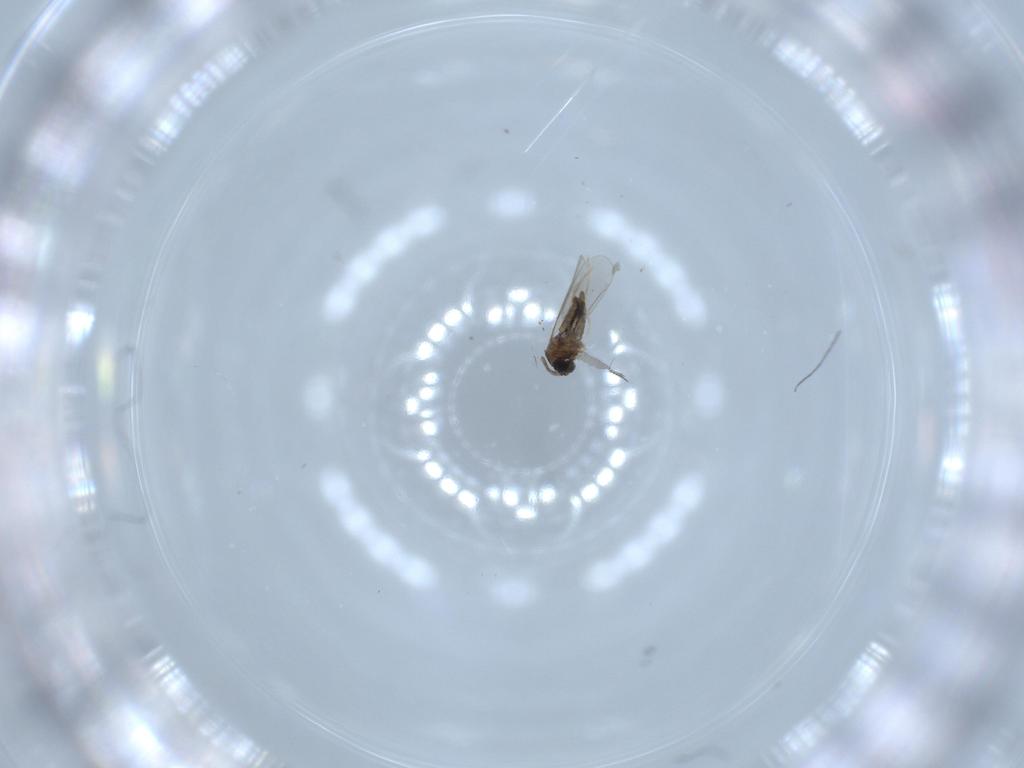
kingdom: Animalia
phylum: Arthropoda
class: Insecta
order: Diptera
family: Cecidomyiidae
